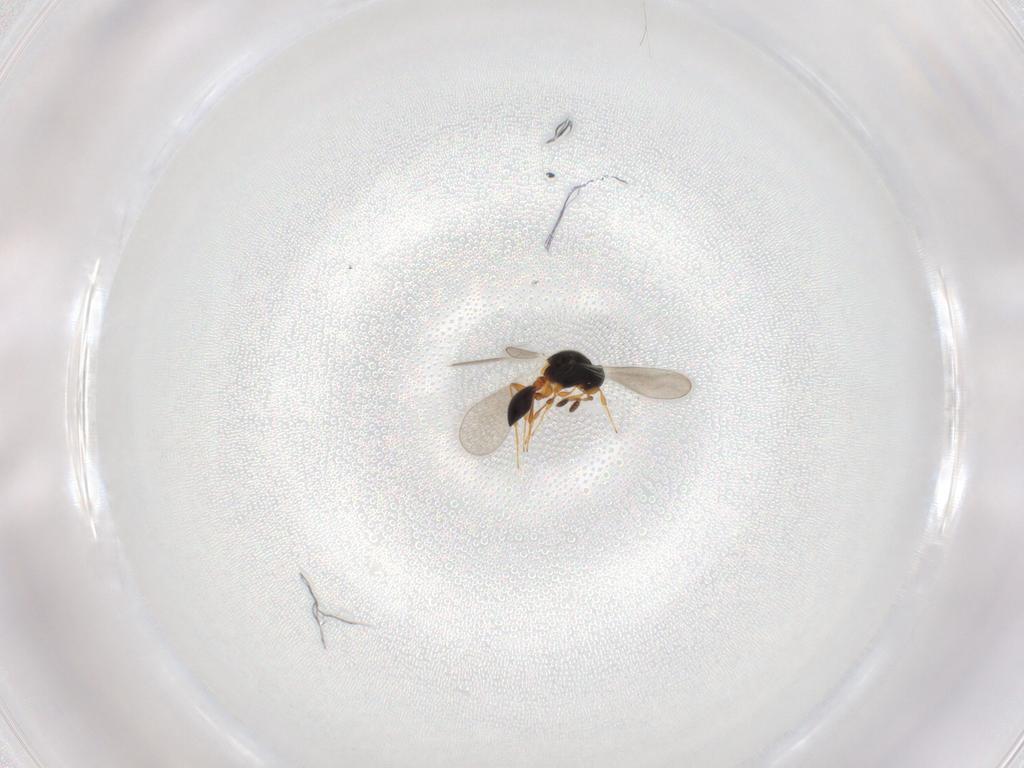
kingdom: Animalia
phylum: Arthropoda
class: Insecta
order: Hymenoptera
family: Platygastridae
